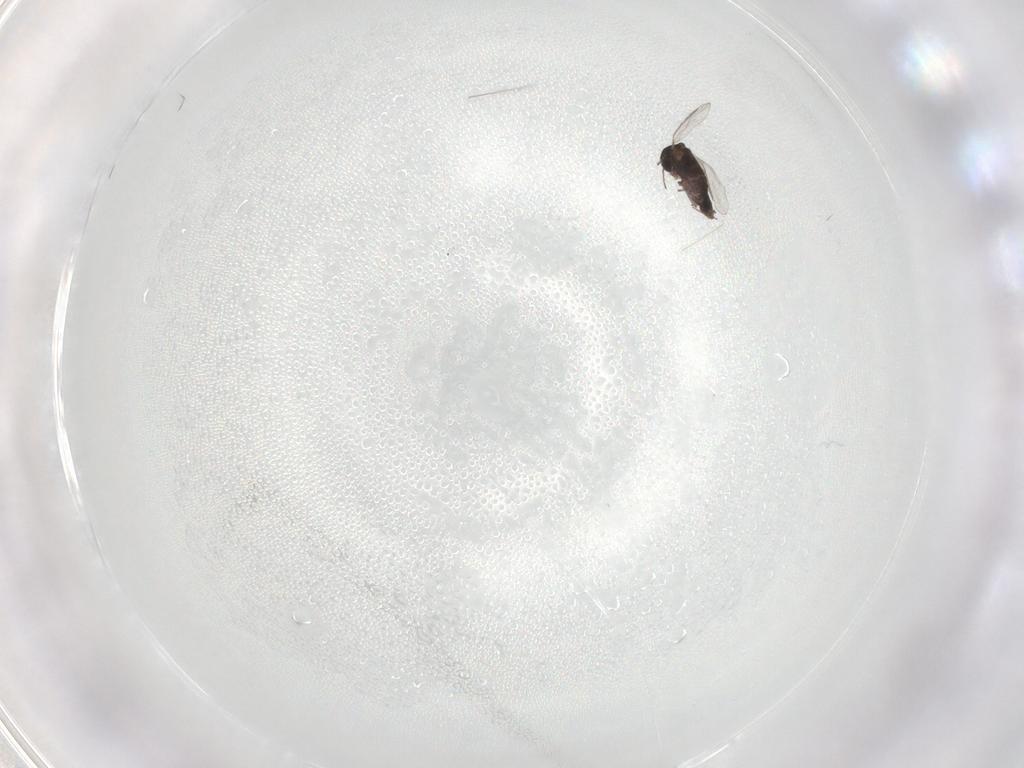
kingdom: Animalia
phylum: Arthropoda
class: Insecta
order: Diptera
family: Chironomidae
